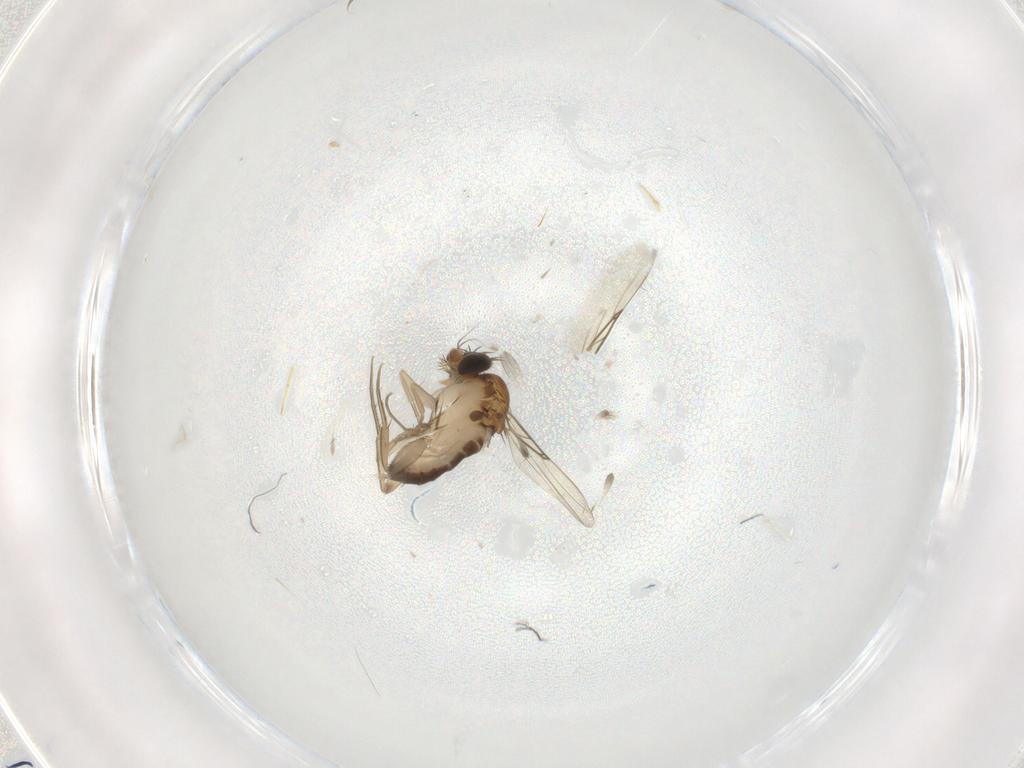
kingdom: Animalia
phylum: Arthropoda
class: Insecta
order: Diptera
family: Phoridae
